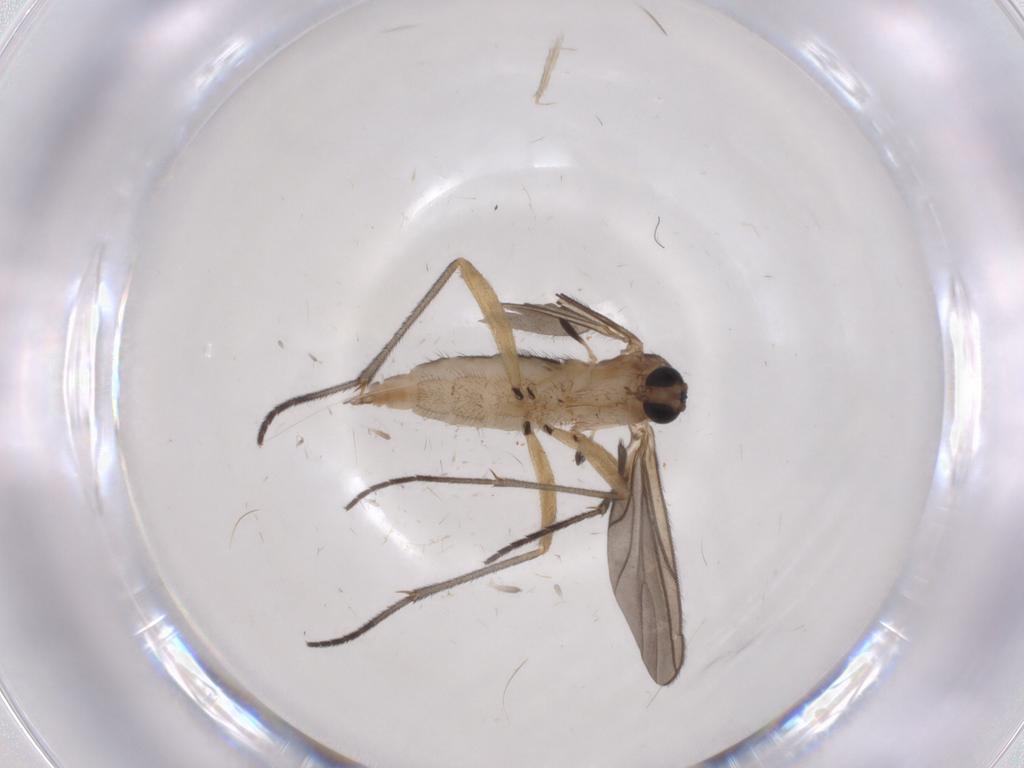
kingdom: Animalia
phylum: Arthropoda
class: Insecta
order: Diptera
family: Sciaridae
